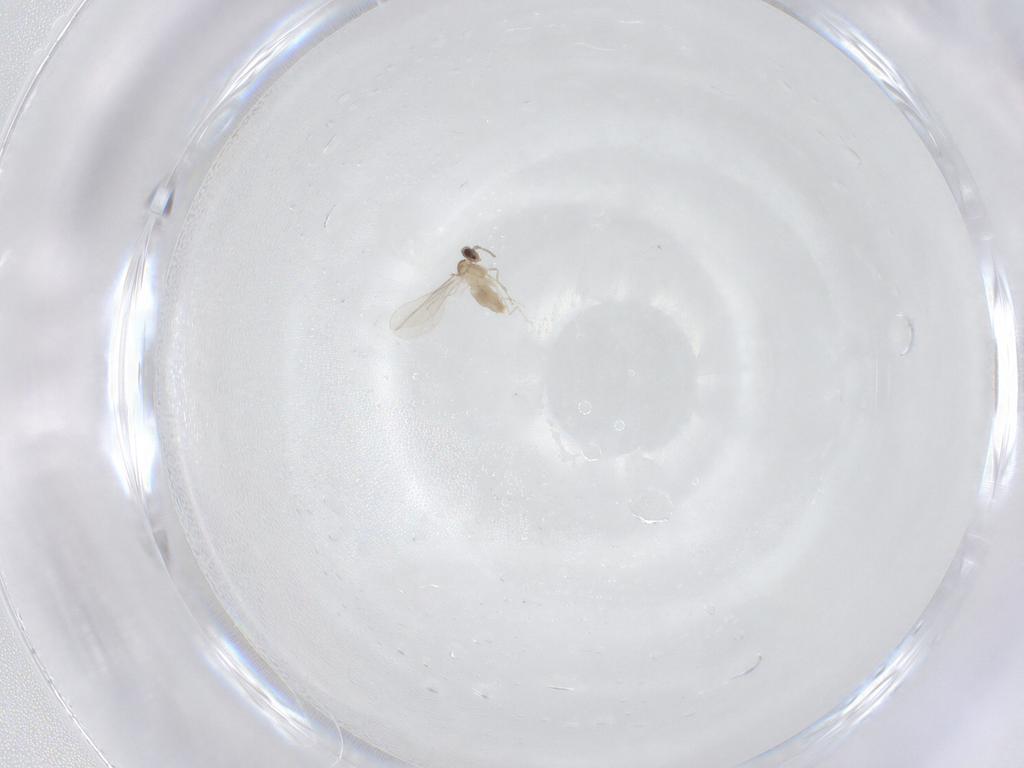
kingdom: Animalia
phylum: Arthropoda
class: Insecta
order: Diptera
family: Cecidomyiidae
